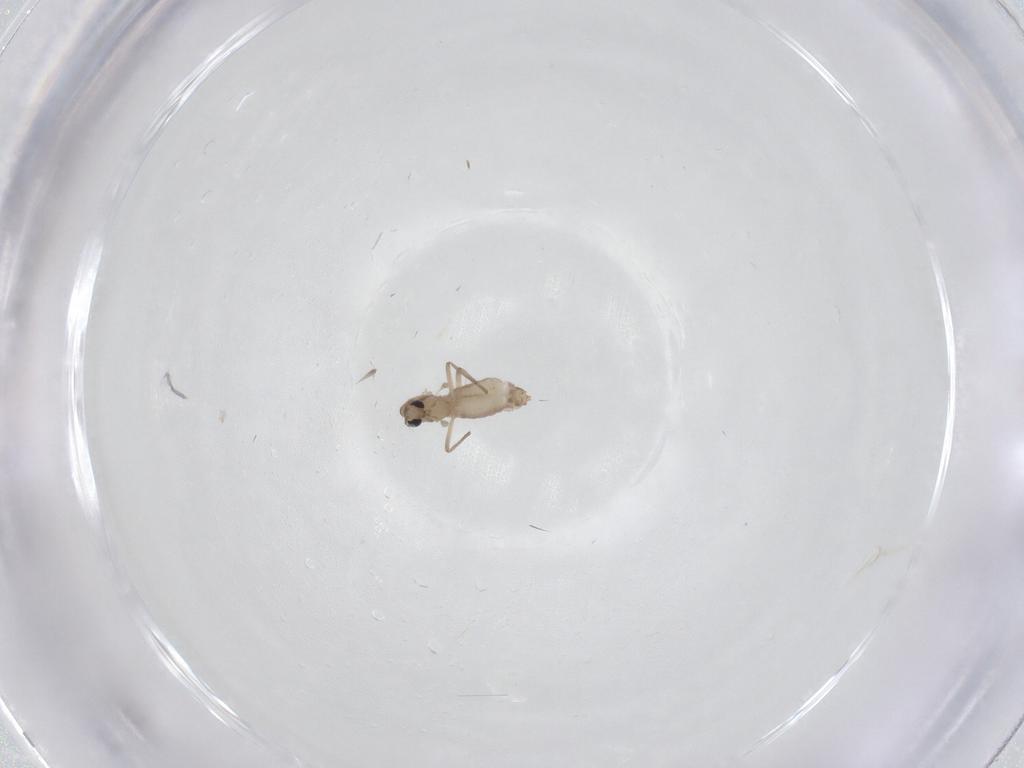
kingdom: Animalia
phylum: Arthropoda
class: Insecta
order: Diptera
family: Chironomidae
